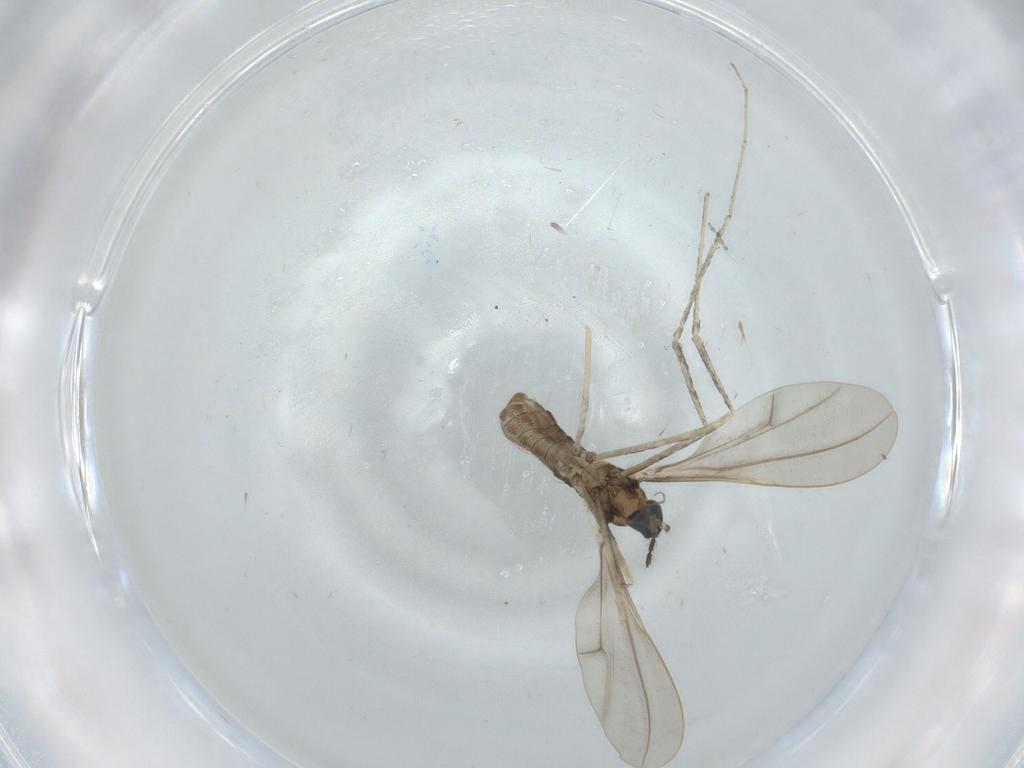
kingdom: Animalia
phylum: Arthropoda
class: Insecta
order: Diptera
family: Cecidomyiidae
